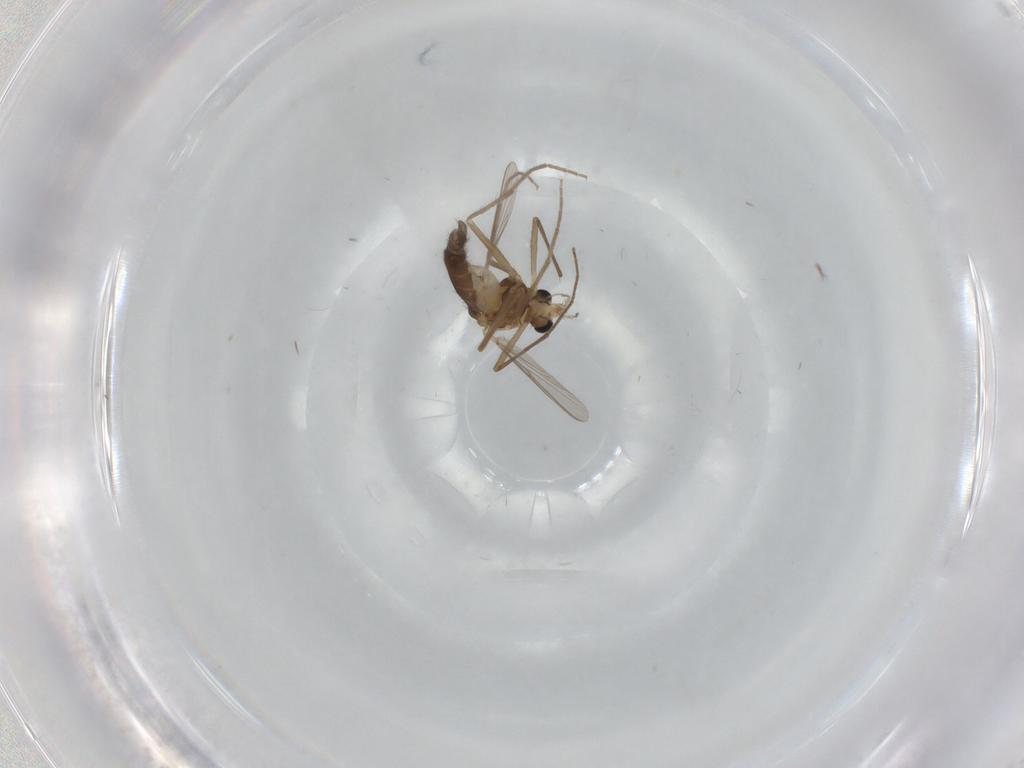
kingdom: Animalia
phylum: Arthropoda
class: Insecta
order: Diptera
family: Chironomidae
